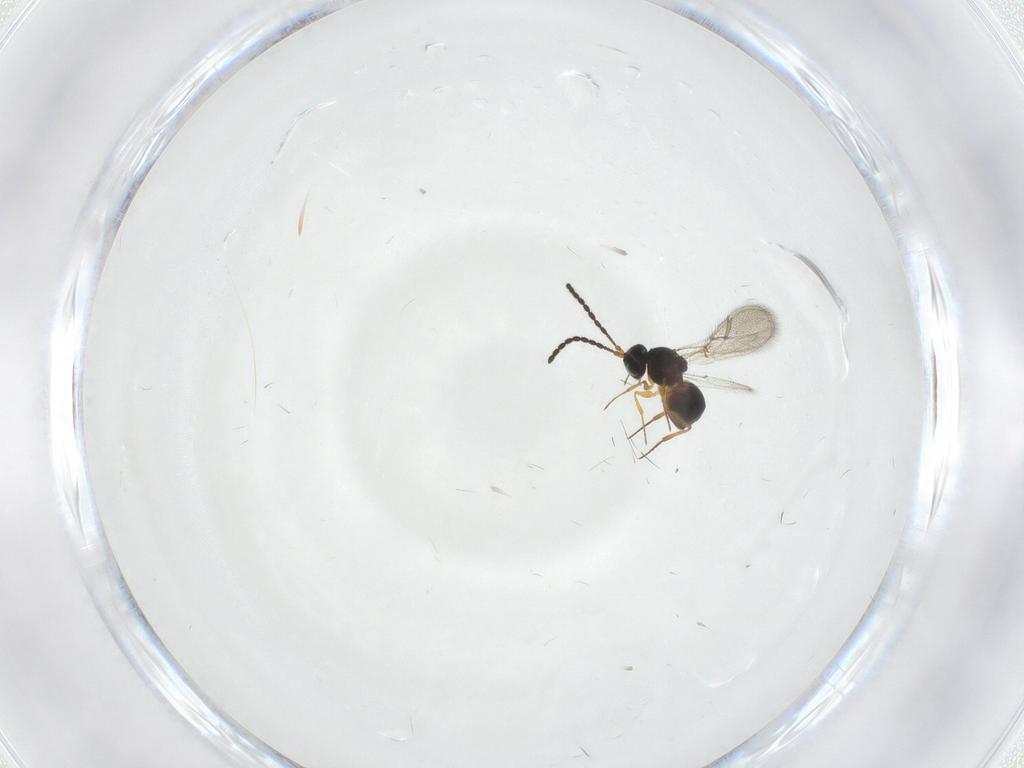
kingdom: Animalia
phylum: Arthropoda
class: Insecta
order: Hymenoptera
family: Figitidae
